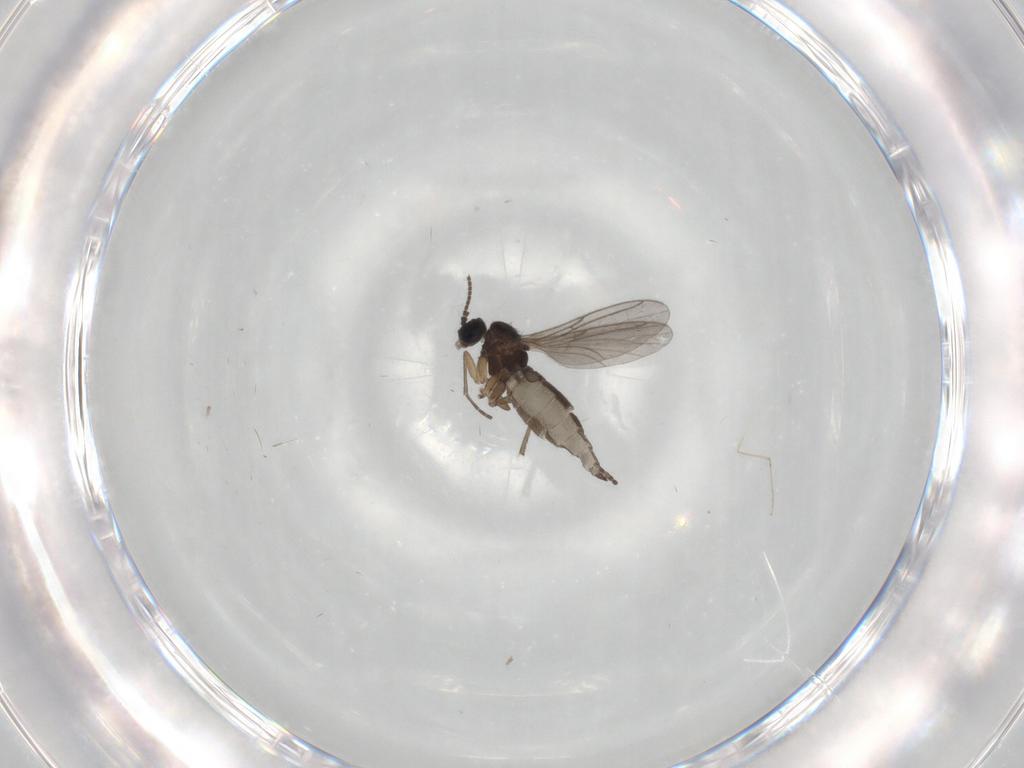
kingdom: Animalia
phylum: Arthropoda
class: Insecta
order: Diptera
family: Sciaridae
